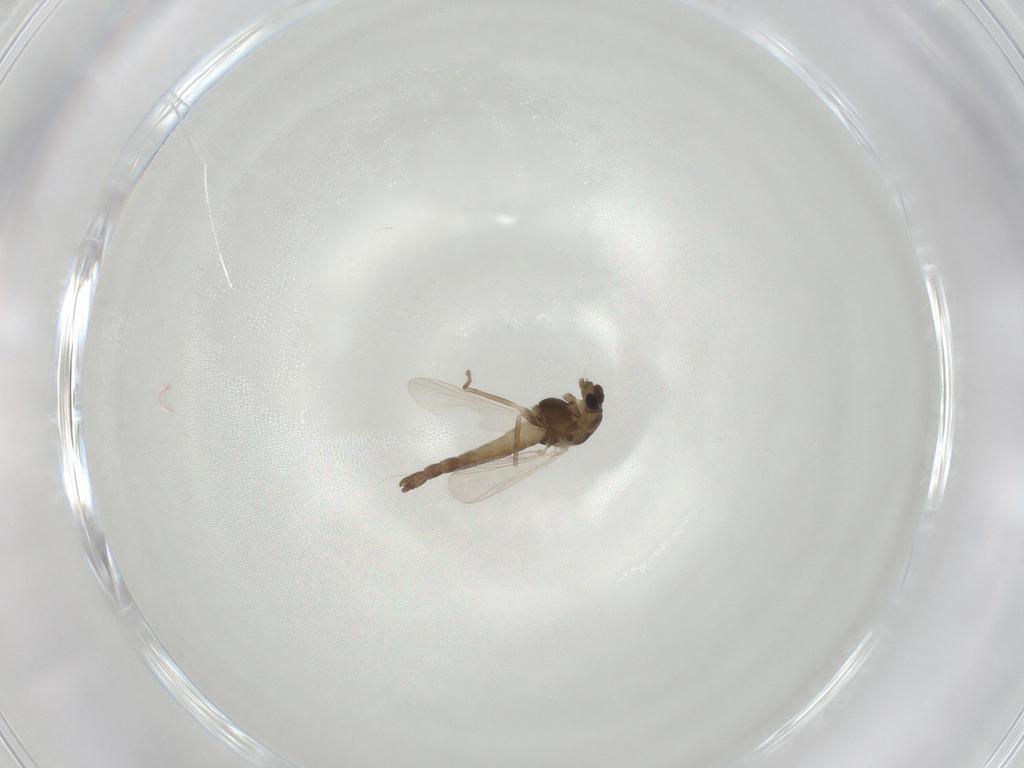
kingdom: Animalia
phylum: Arthropoda
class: Insecta
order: Diptera
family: Chironomidae
